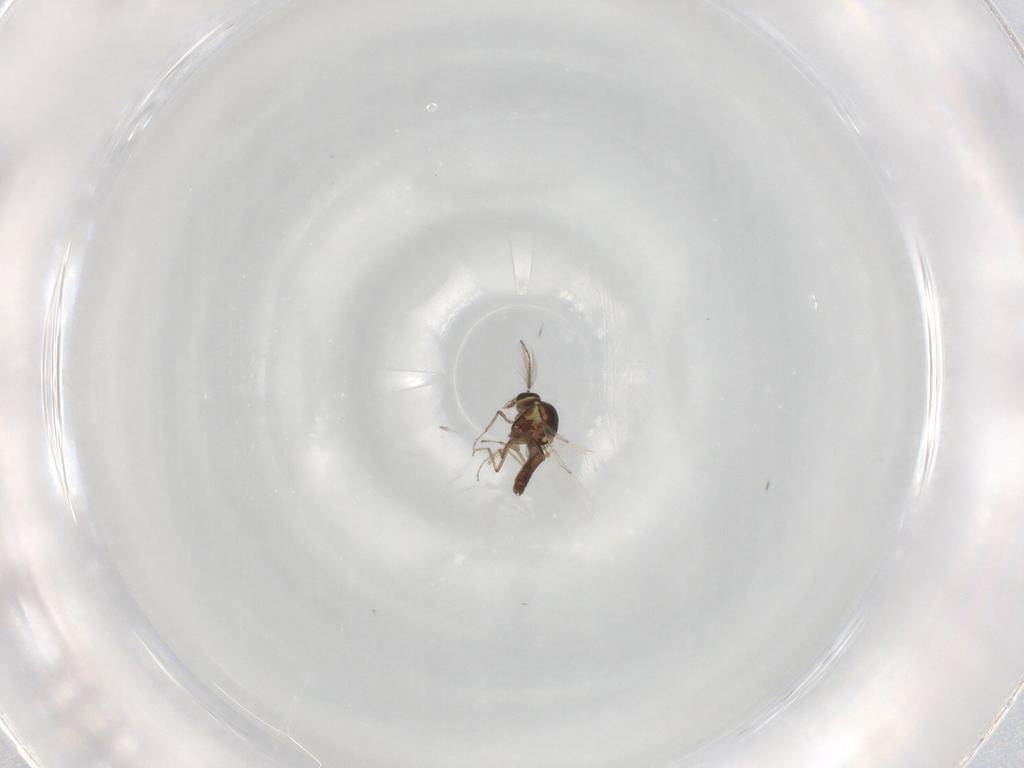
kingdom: Animalia
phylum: Arthropoda
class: Insecta
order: Diptera
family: Ceratopogonidae
